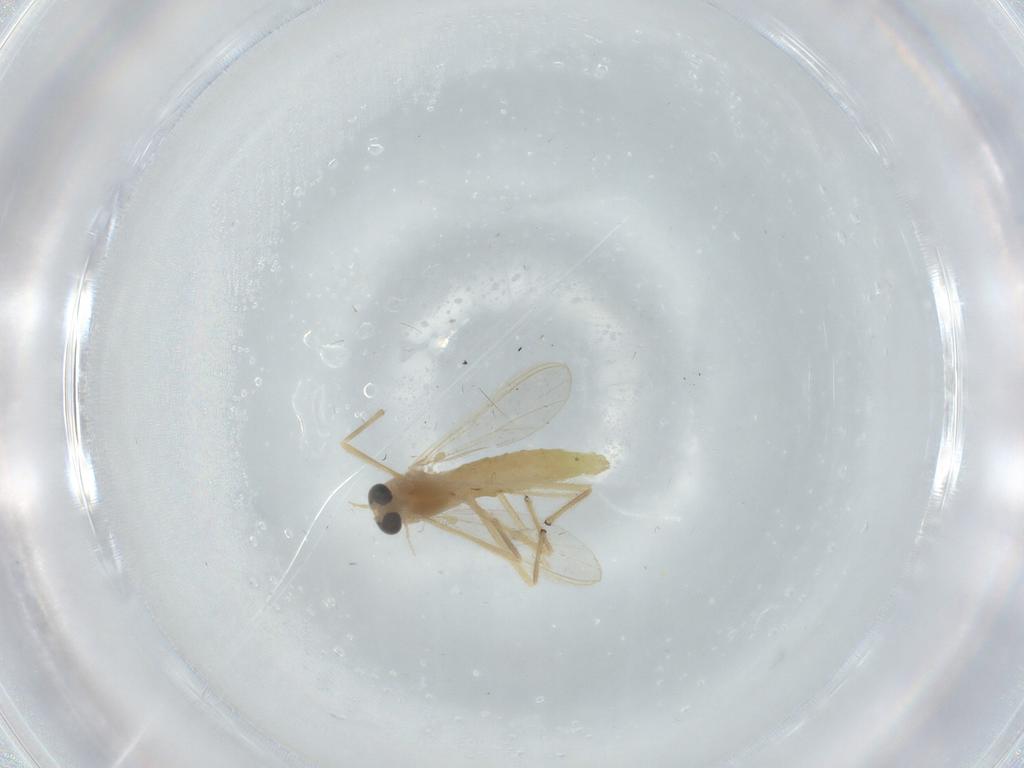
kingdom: Animalia
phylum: Arthropoda
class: Insecta
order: Diptera
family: Chironomidae
